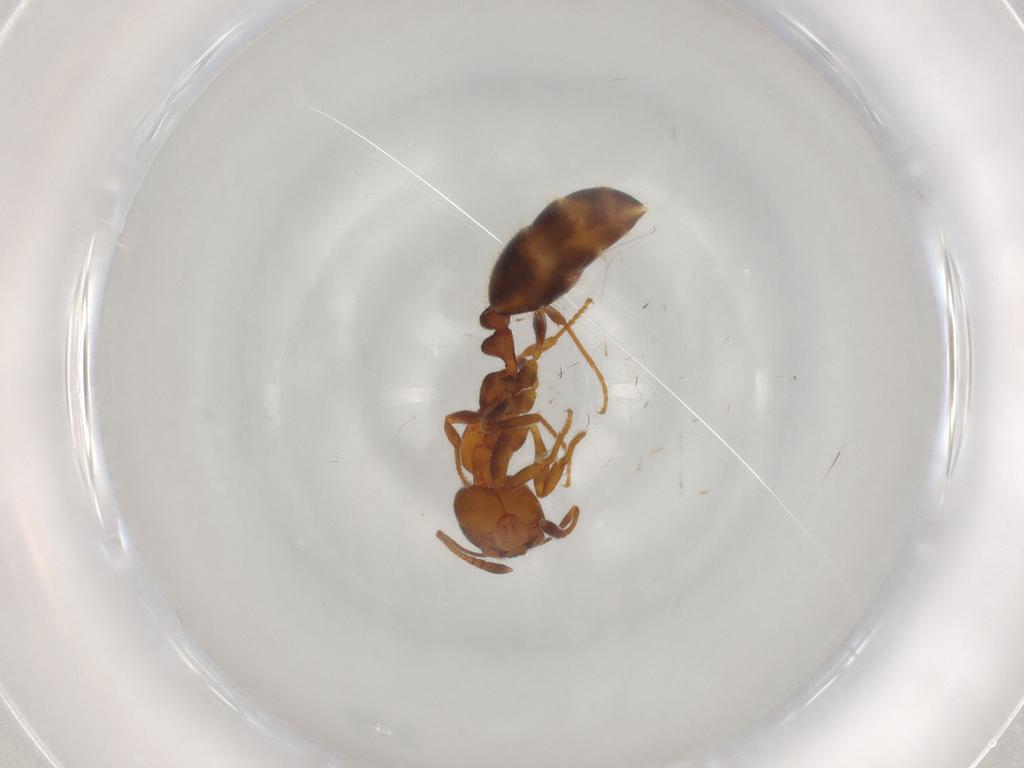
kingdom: Animalia
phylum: Arthropoda
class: Insecta
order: Hymenoptera
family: Formicidae
